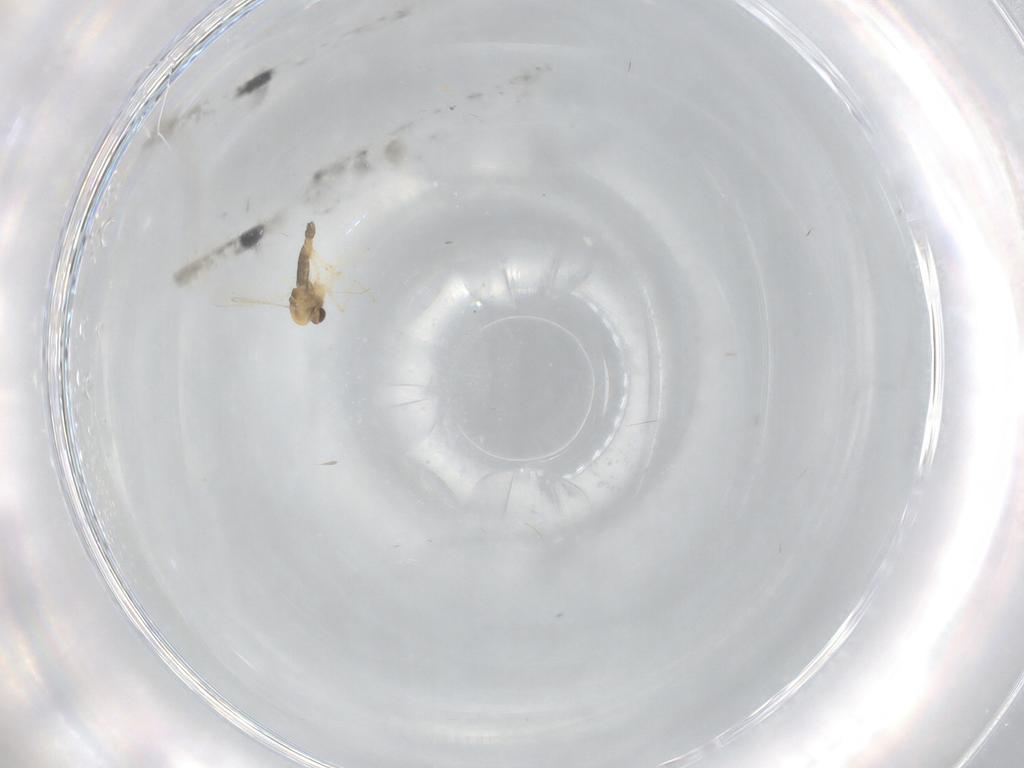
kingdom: Animalia
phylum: Arthropoda
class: Insecta
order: Diptera
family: Chironomidae
